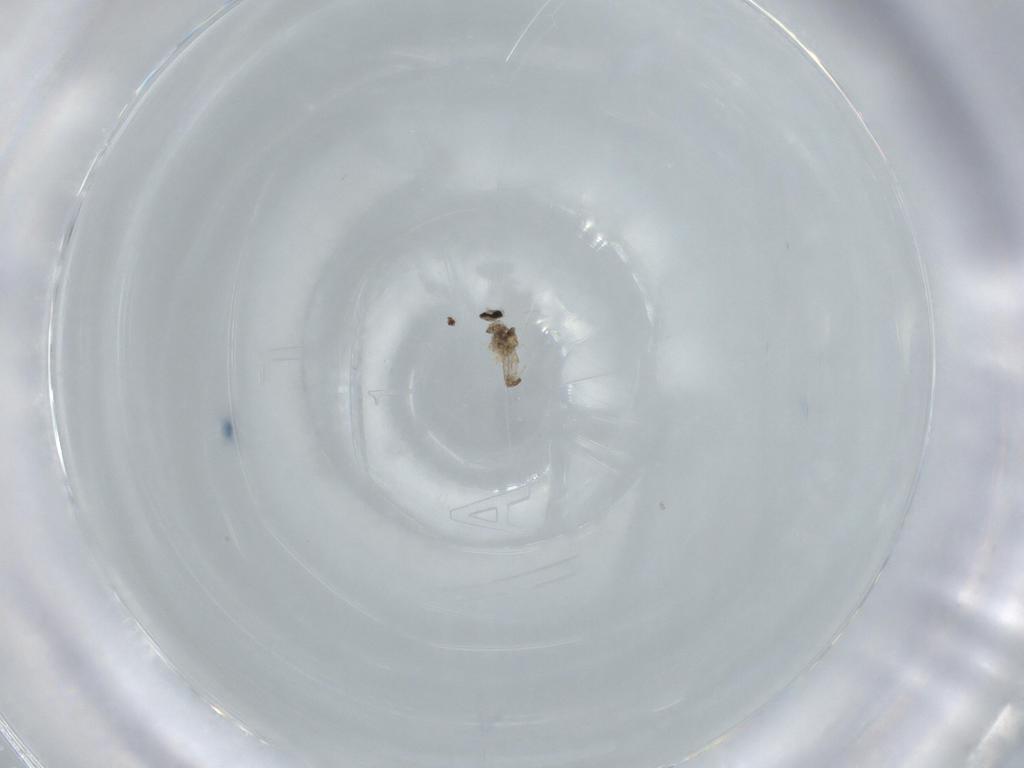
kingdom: Animalia
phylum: Arthropoda
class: Insecta
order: Diptera
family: Cecidomyiidae
